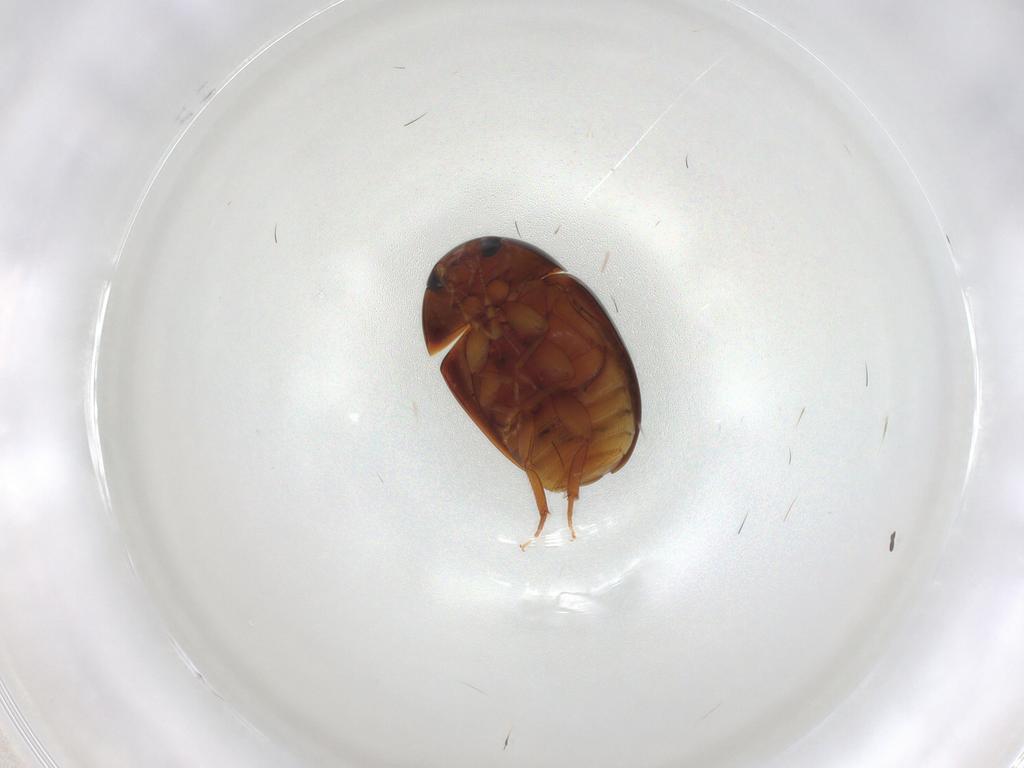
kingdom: Animalia
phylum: Arthropoda
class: Insecta
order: Coleoptera
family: Phalacridae
